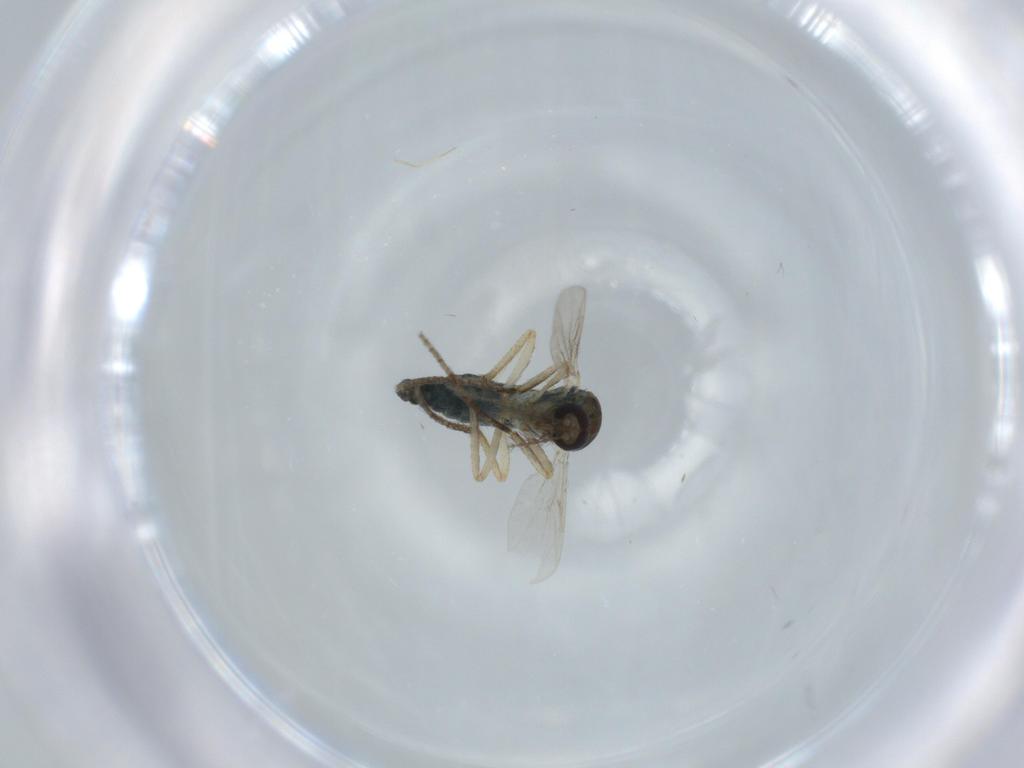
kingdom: Animalia
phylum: Arthropoda
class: Insecta
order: Diptera
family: Ceratopogonidae
